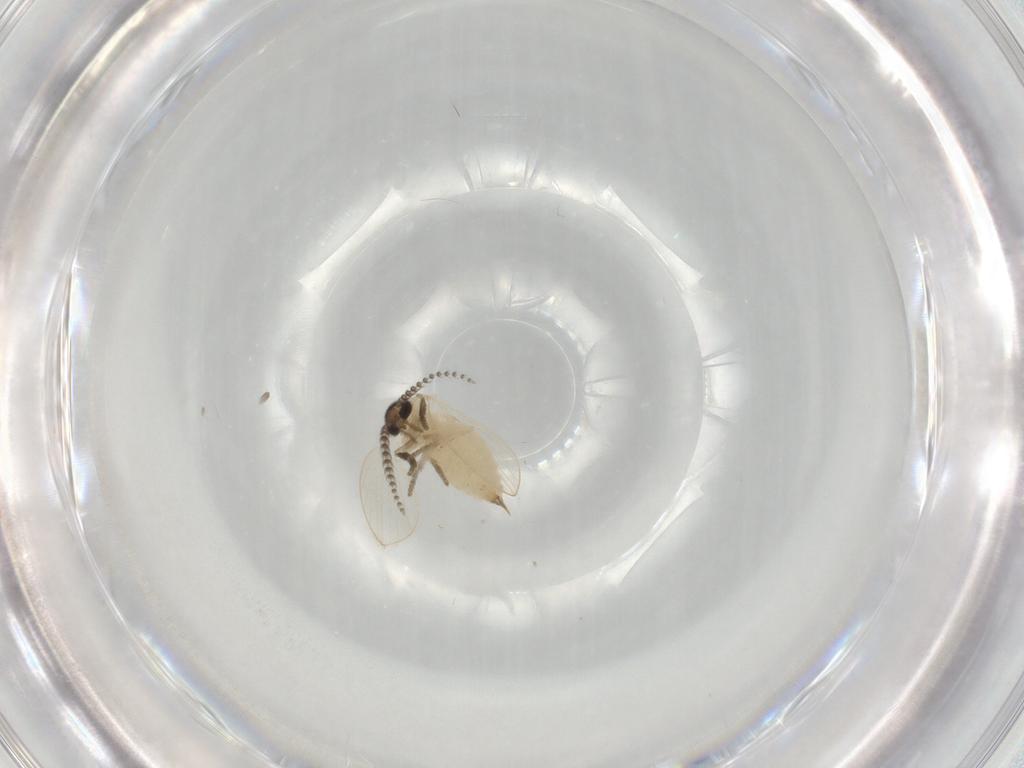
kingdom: Animalia
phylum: Arthropoda
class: Insecta
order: Diptera
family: Psychodidae
